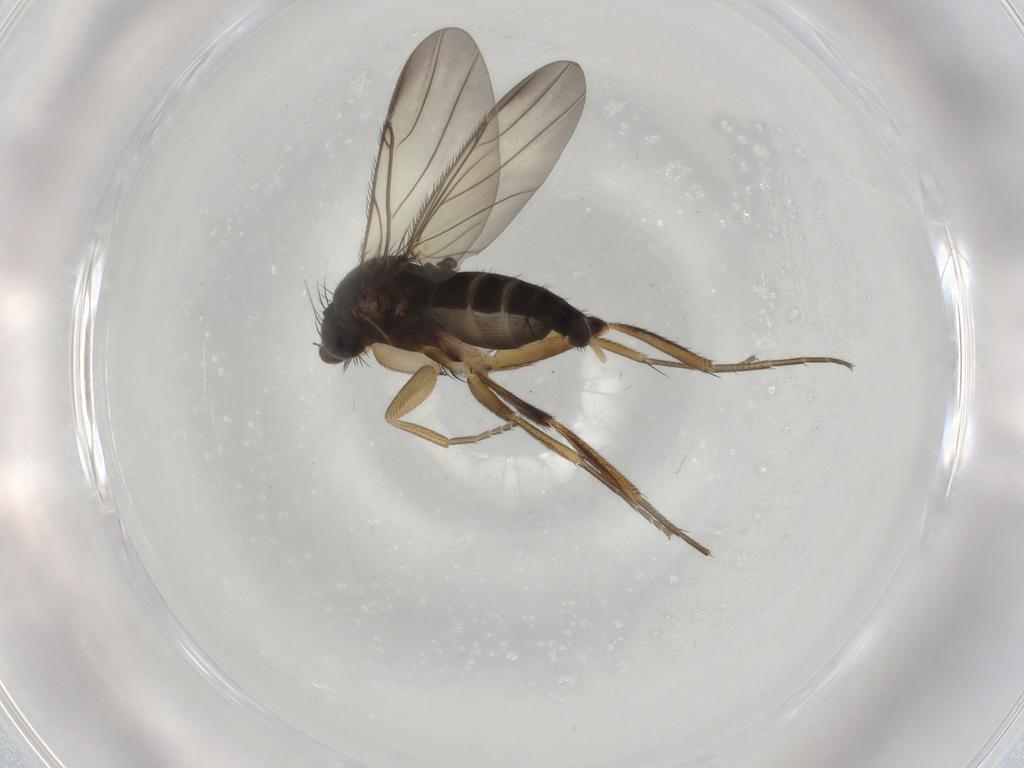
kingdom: Animalia
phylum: Arthropoda
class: Insecta
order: Diptera
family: Phoridae
